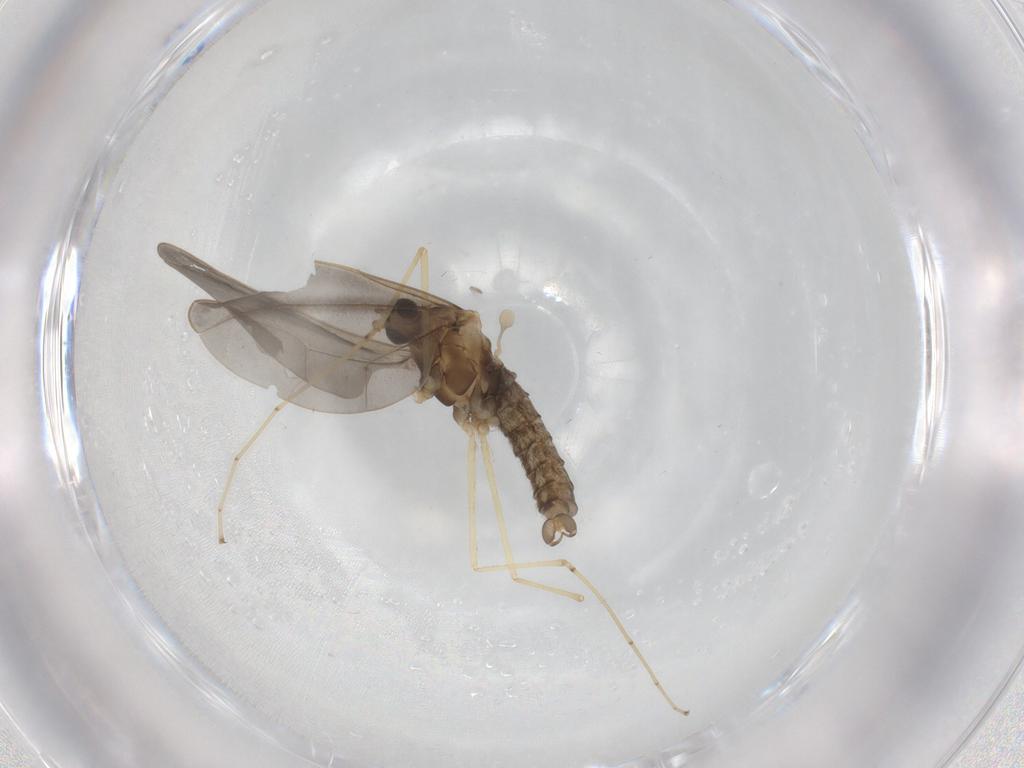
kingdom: Animalia
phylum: Arthropoda
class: Insecta
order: Diptera
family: Cecidomyiidae
